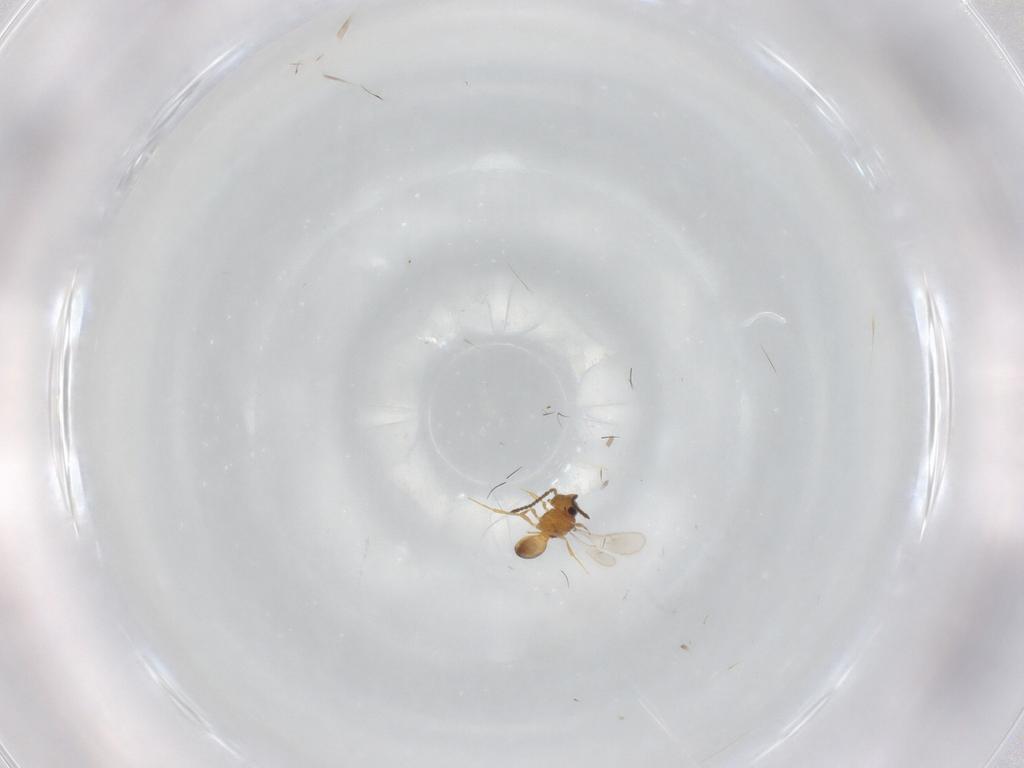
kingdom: Animalia
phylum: Arthropoda
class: Insecta
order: Hymenoptera
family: Scelionidae
